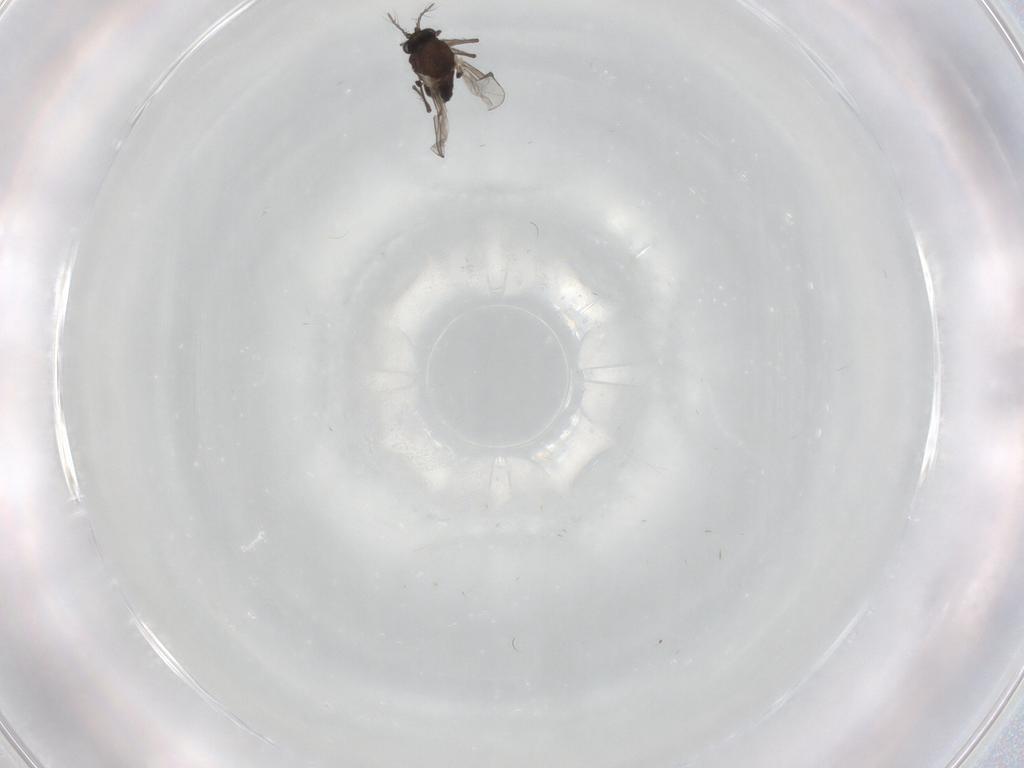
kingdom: Animalia
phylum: Arthropoda
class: Insecta
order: Diptera
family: Chironomidae
